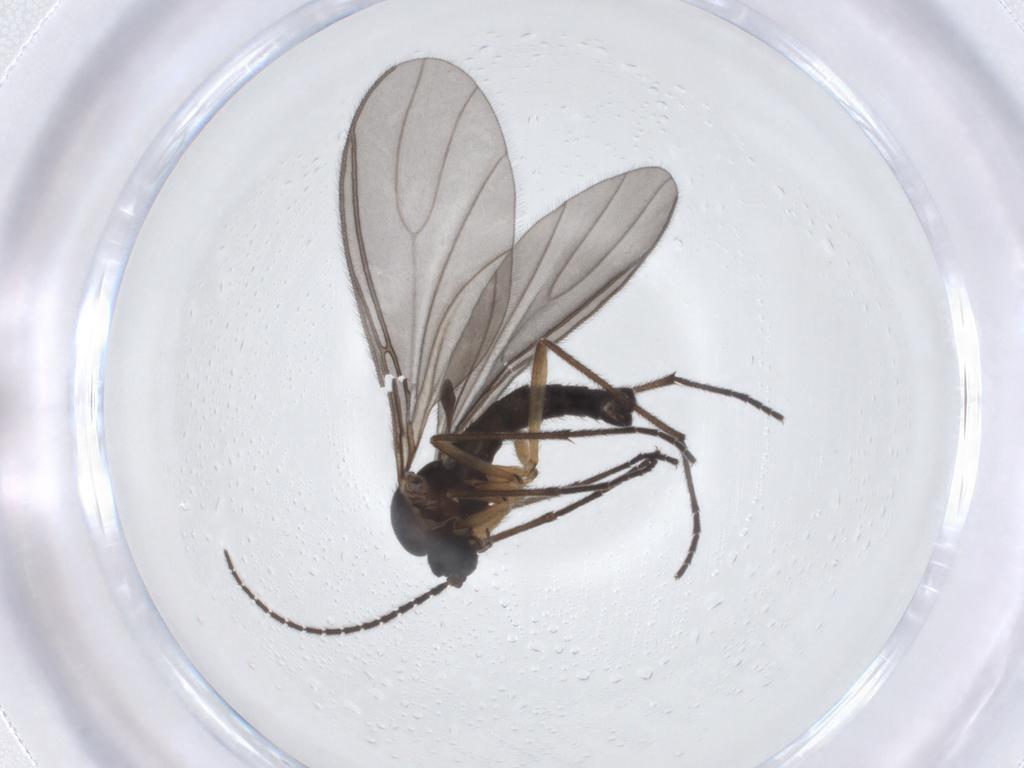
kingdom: Animalia
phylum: Arthropoda
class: Insecta
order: Diptera
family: Sciaridae
